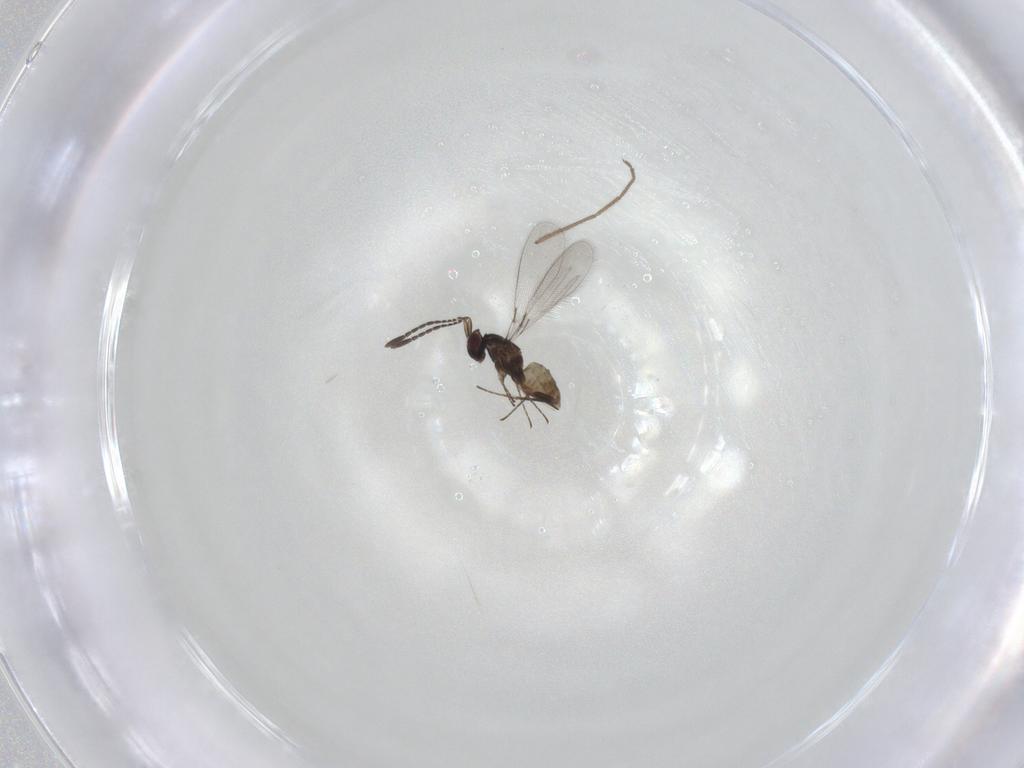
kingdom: Animalia
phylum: Arthropoda
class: Insecta
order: Hymenoptera
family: Mymaridae
